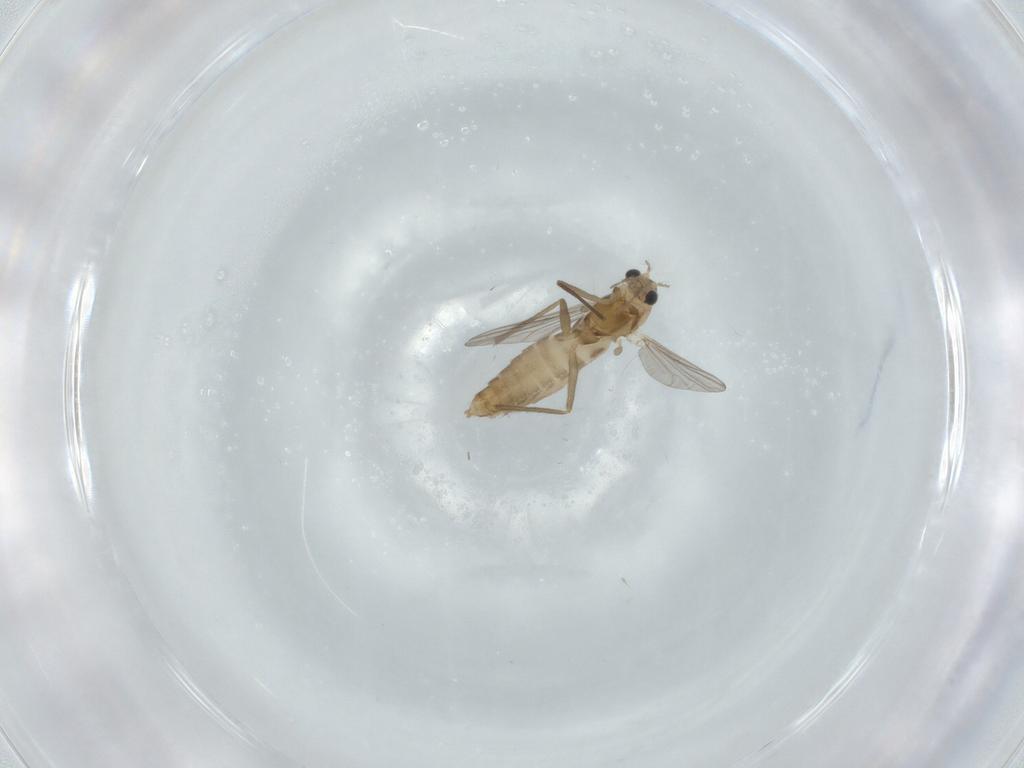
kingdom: Animalia
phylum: Arthropoda
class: Insecta
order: Diptera
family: Chironomidae
